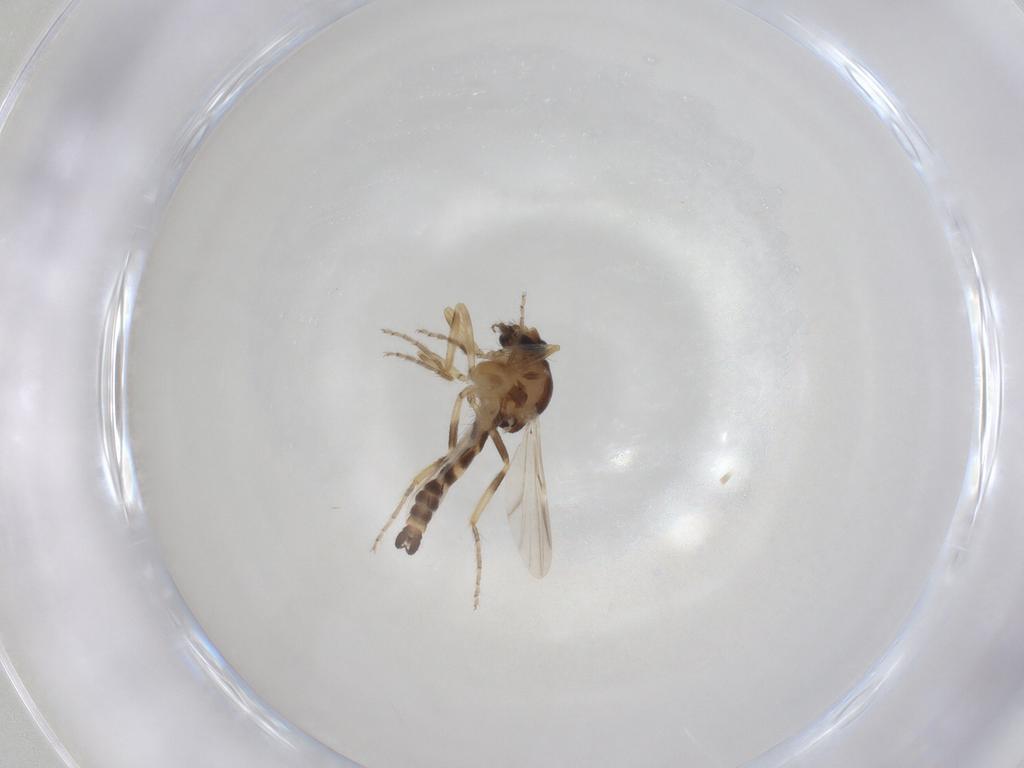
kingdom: Animalia
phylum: Arthropoda
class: Insecta
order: Diptera
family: Ceratopogonidae
